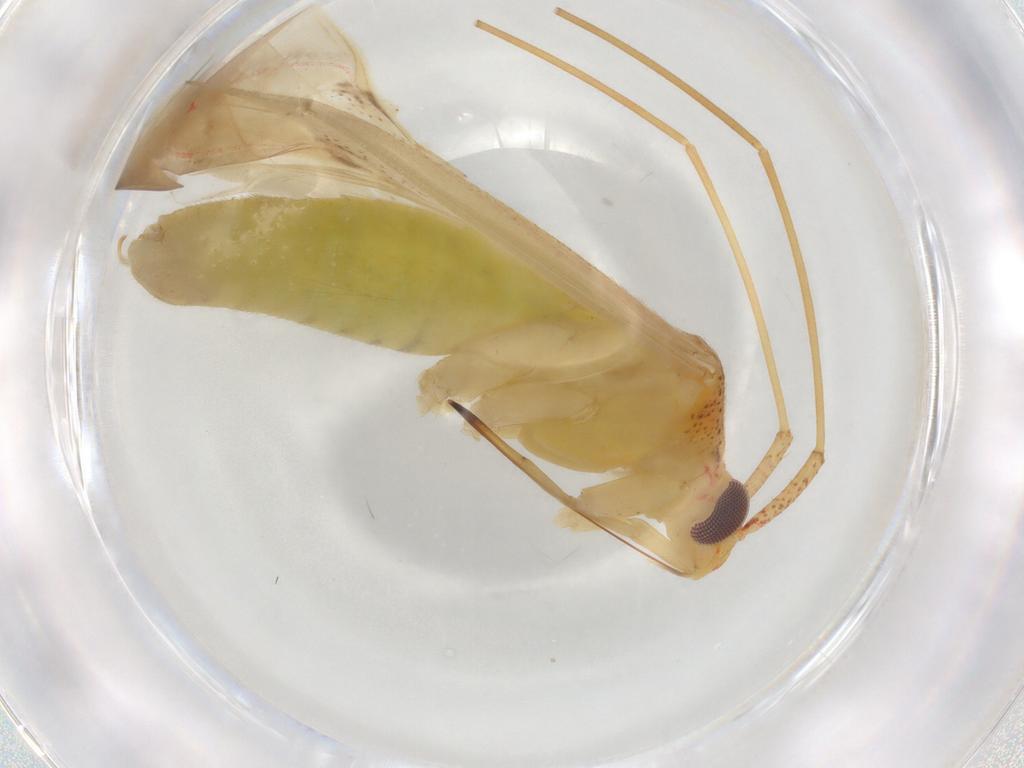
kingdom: Animalia
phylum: Arthropoda
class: Insecta
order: Hemiptera
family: Miridae
